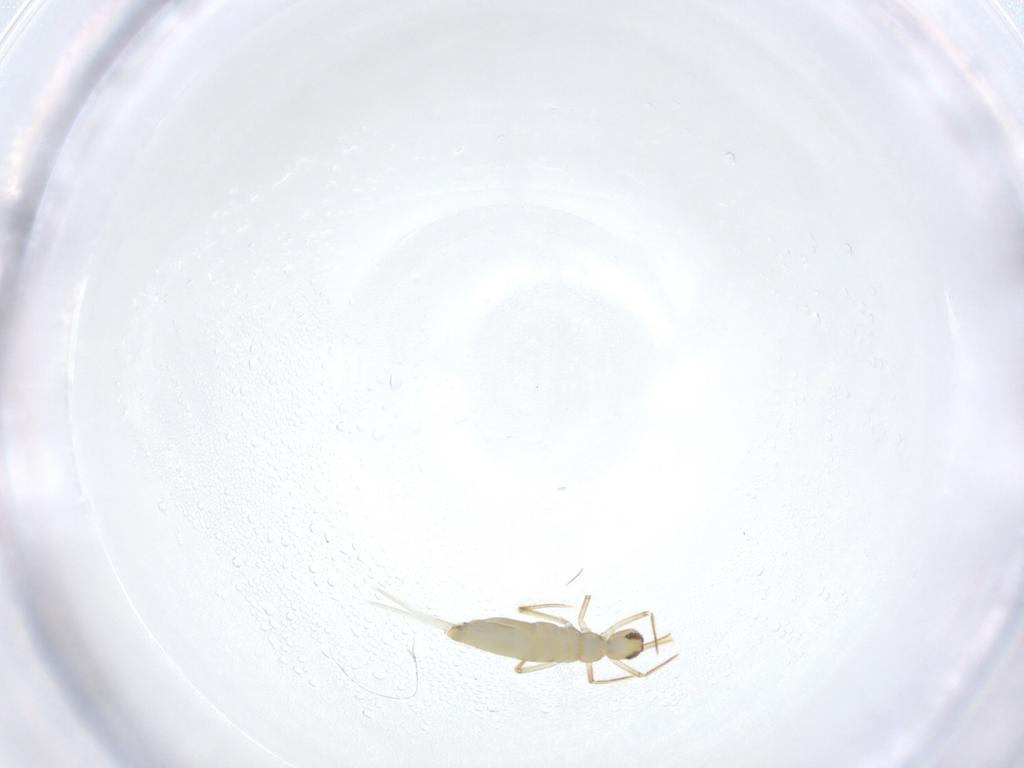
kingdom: Animalia
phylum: Arthropoda
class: Collembola
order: Entomobryomorpha
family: Entomobryidae
